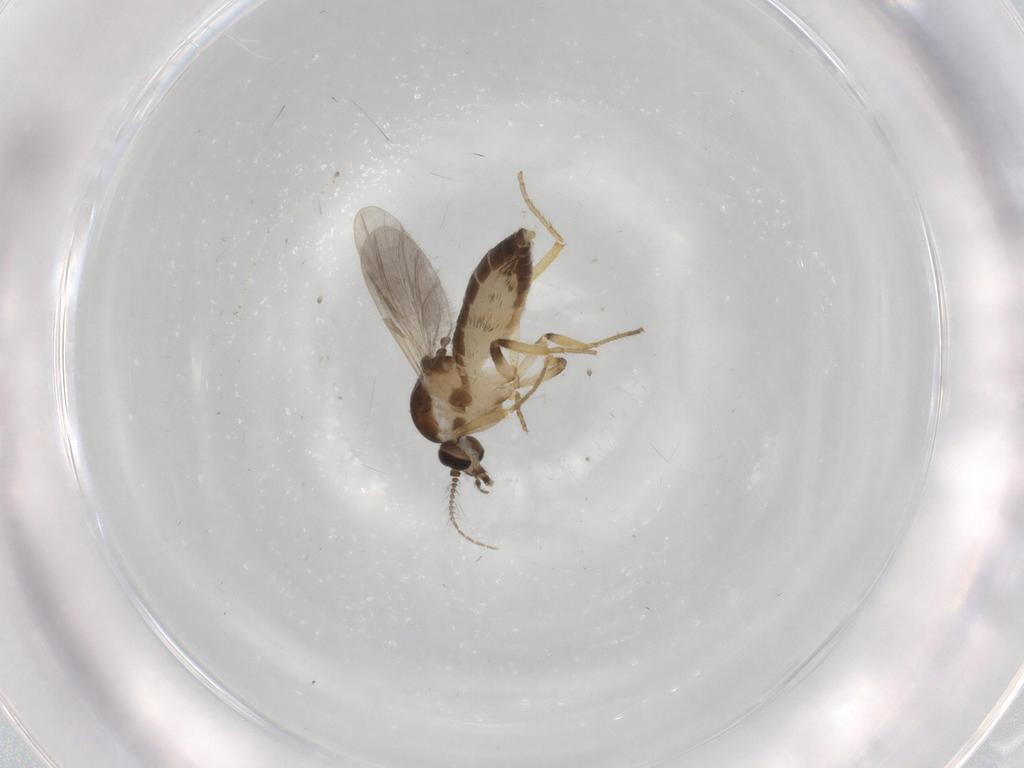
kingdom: Animalia
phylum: Arthropoda
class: Insecta
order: Diptera
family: Ceratopogonidae
